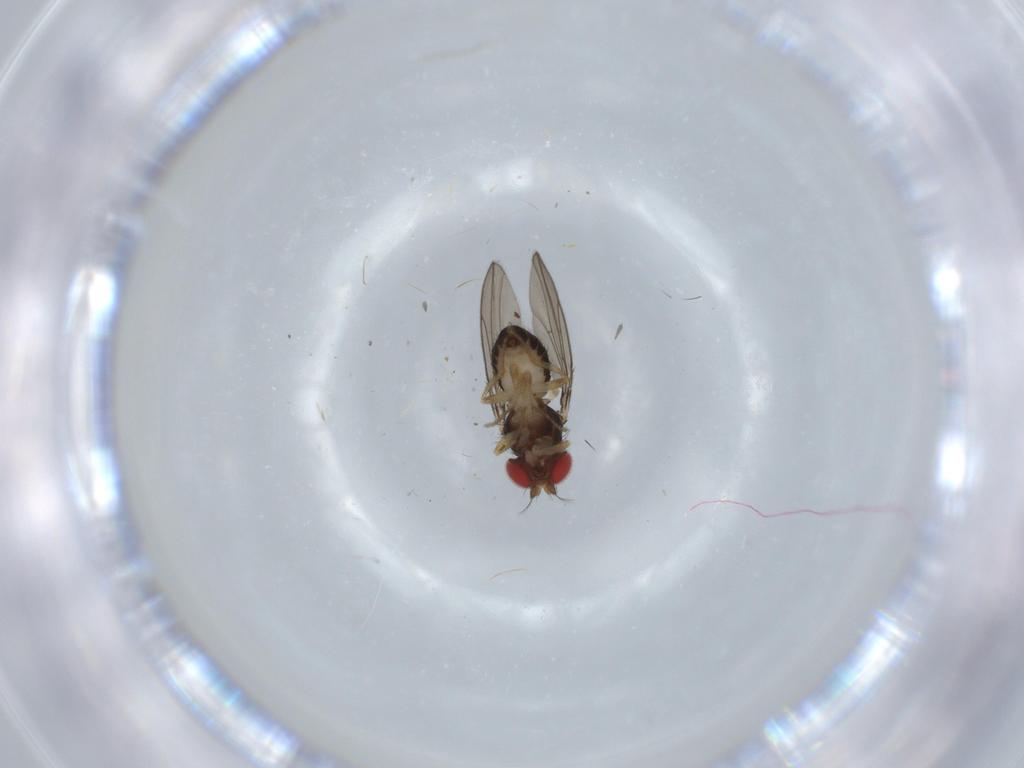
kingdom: Animalia
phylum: Arthropoda
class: Insecta
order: Diptera
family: Drosophilidae
